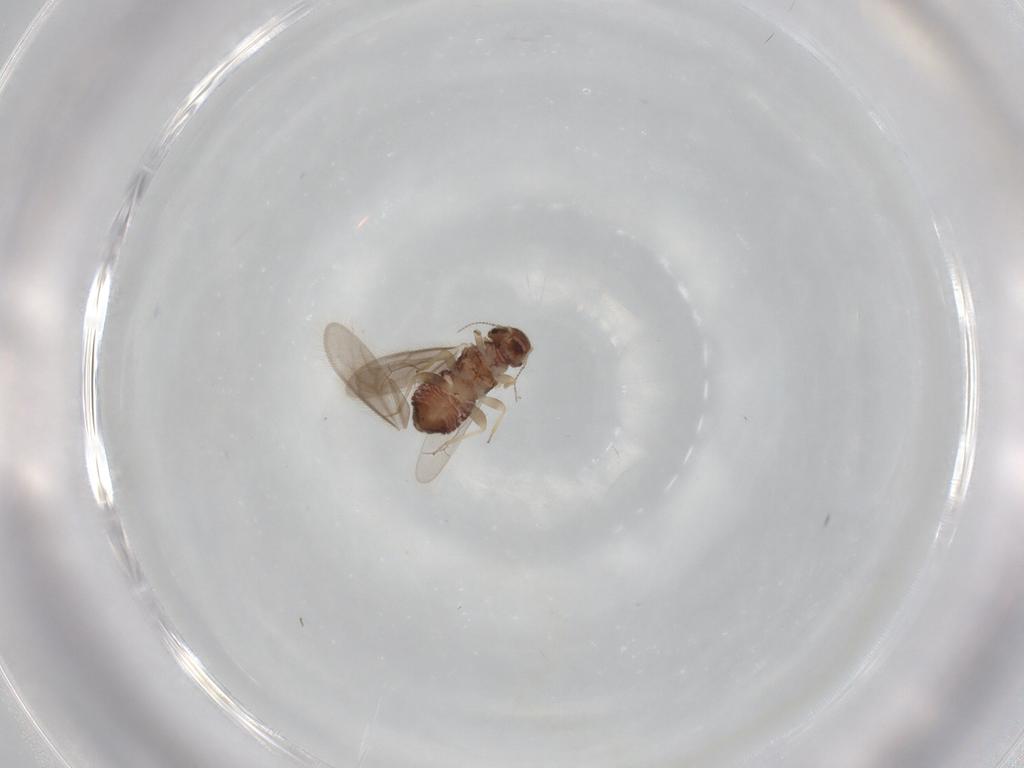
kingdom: Animalia
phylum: Arthropoda
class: Insecta
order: Psocodea
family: Archipsocidae
